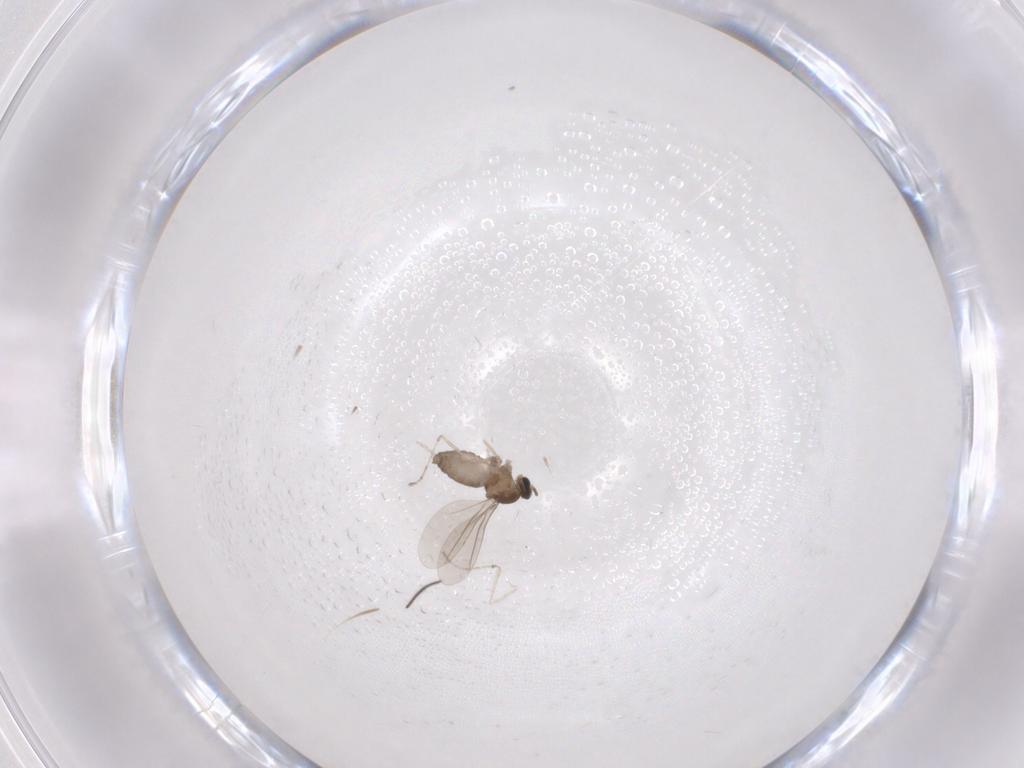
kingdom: Animalia
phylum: Arthropoda
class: Insecta
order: Diptera
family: Cecidomyiidae
